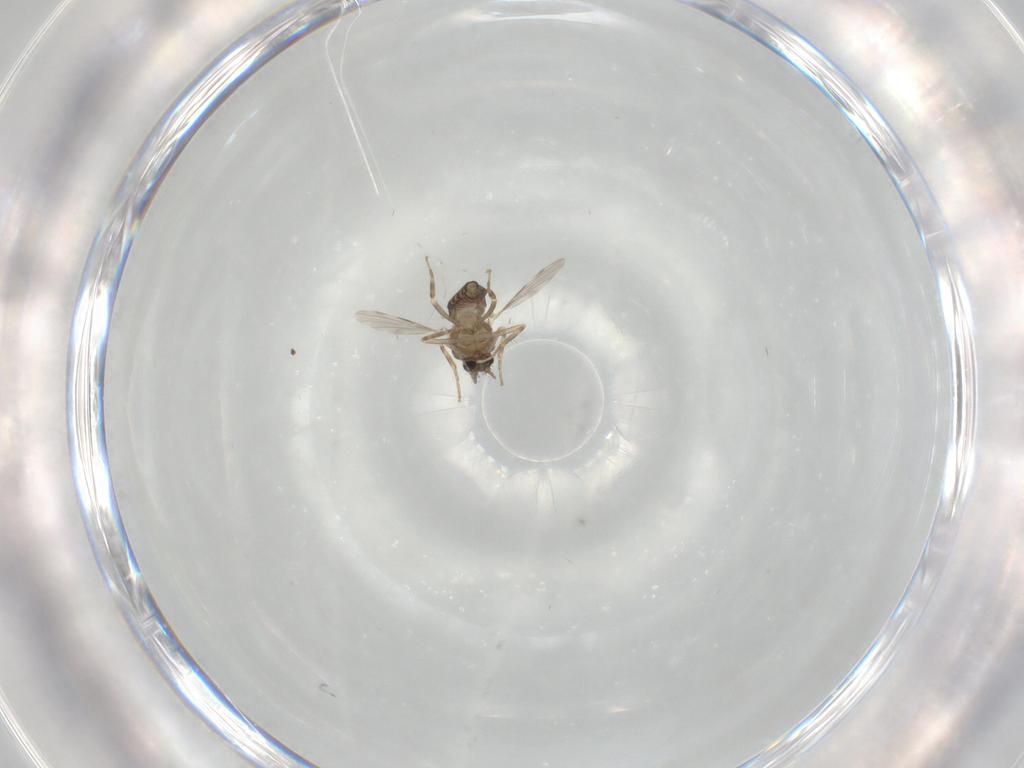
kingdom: Animalia
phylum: Arthropoda
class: Insecta
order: Diptera
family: Ceratopogonidae
